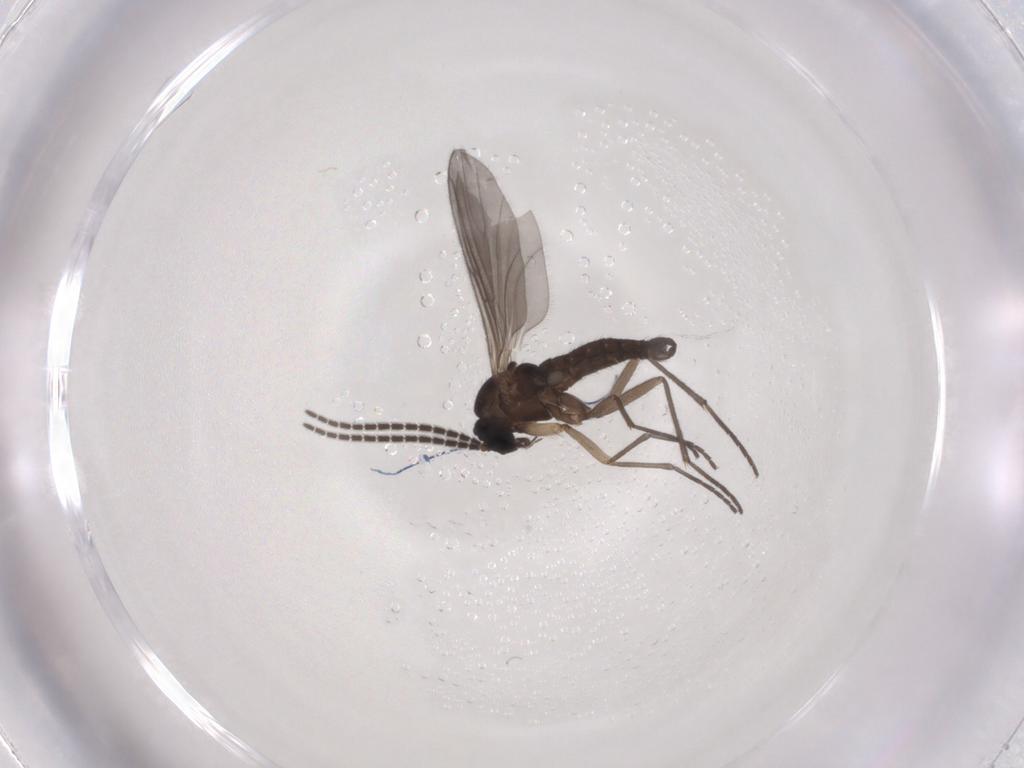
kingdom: Animalia
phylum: Arthropoda
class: Insecta
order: Diptera
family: Sciaridae
